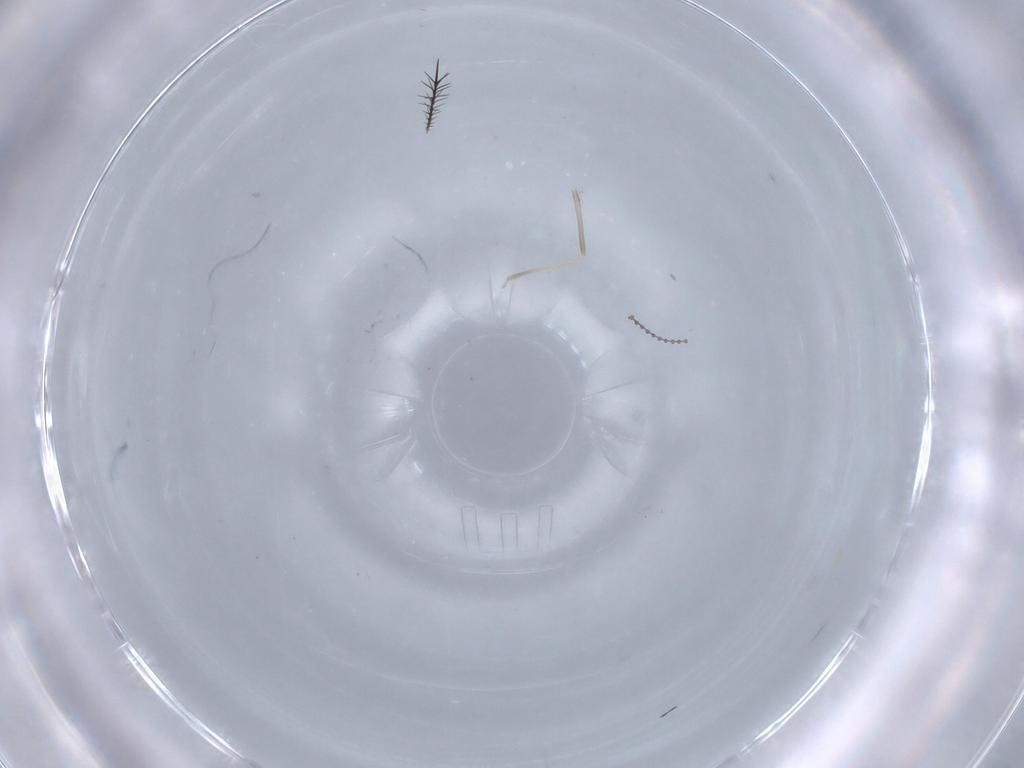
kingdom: Animalia
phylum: Arthropoda
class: Insecta
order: Diptera
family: Cecidomyiidae
